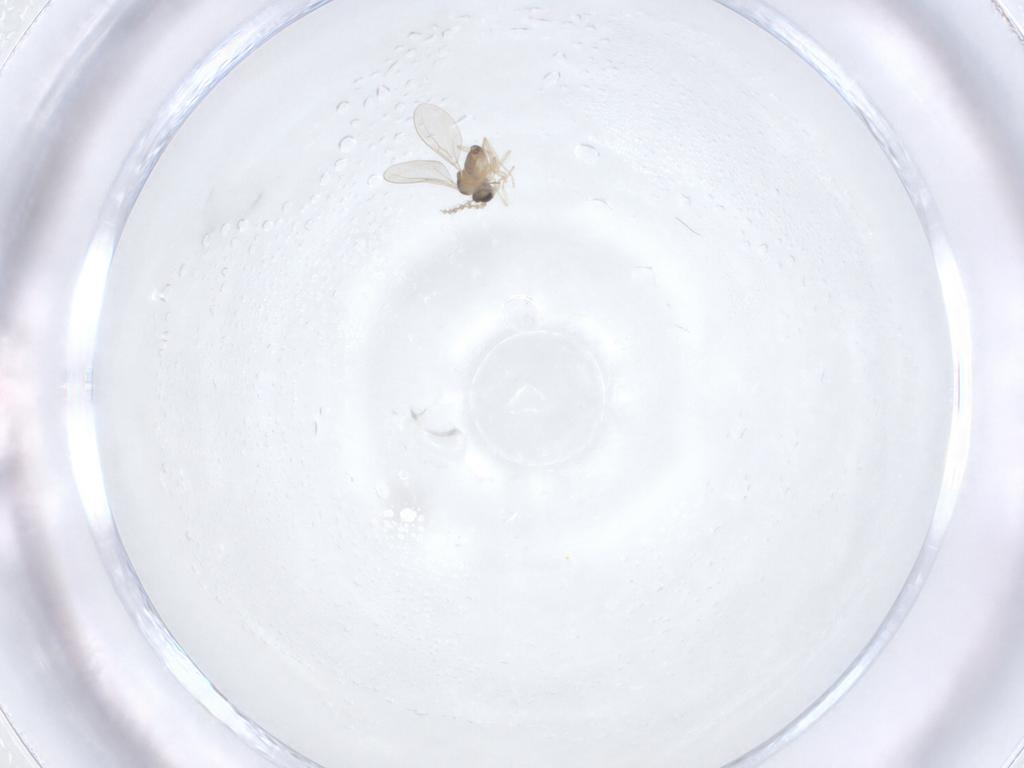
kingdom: Animalia
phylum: Arthropoda
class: Insecta
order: Diptera
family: Cecidomyiidae
